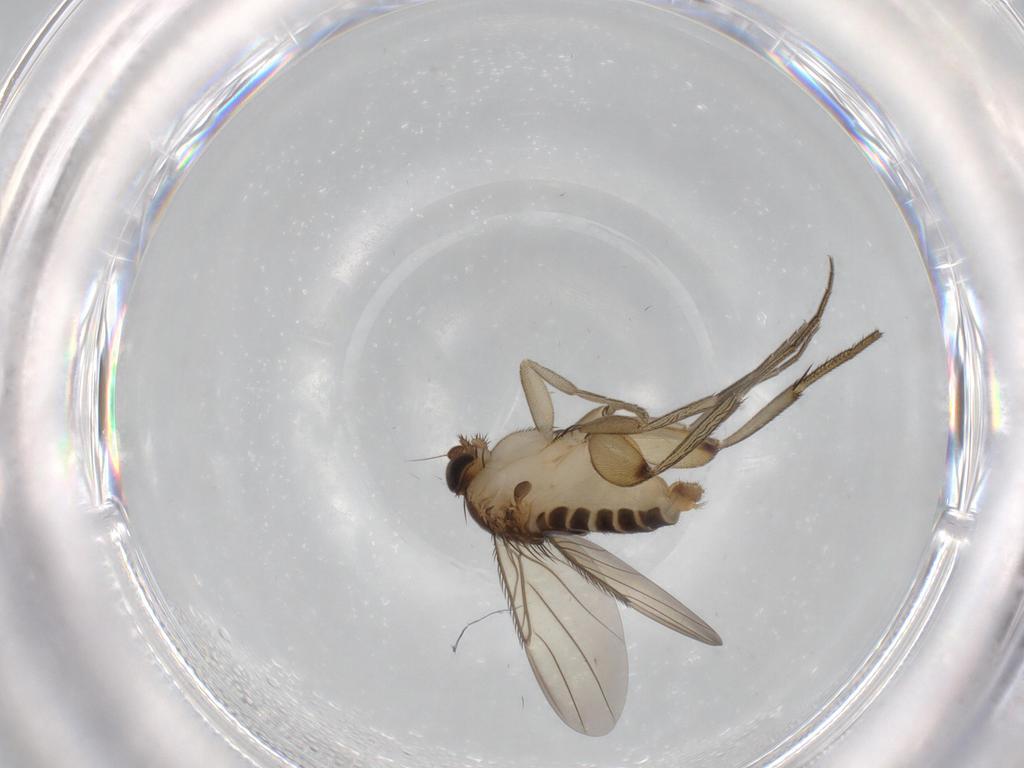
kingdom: Animalia
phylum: Arthropoda
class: Insecta
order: Diptera
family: Phoridae
